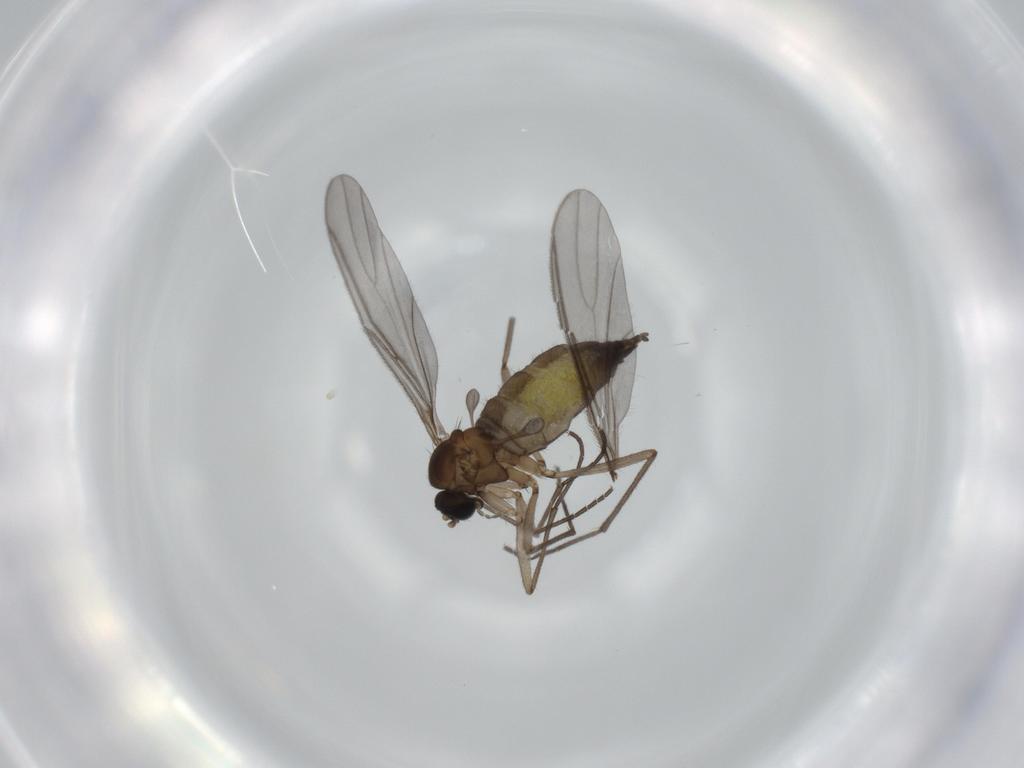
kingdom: Animalia
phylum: Arthropoda
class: Insecta
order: Diptera
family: Sciaridae
